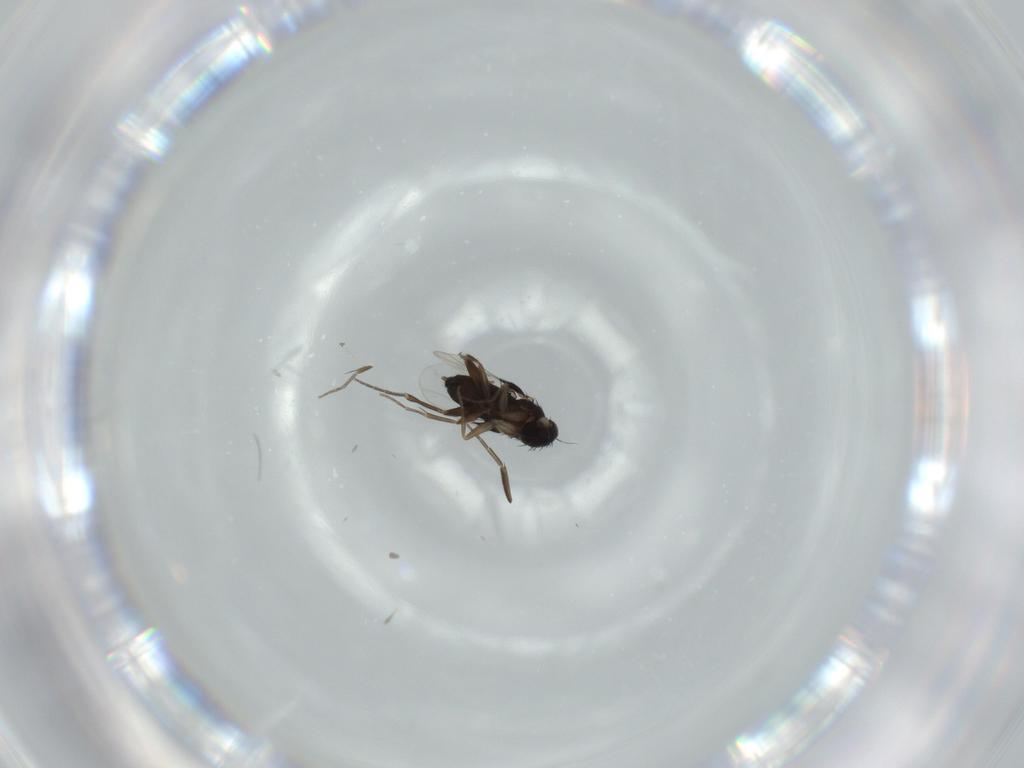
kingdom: Animalia
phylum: Arthropoda
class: Insecta
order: Diptera
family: Phoridae
